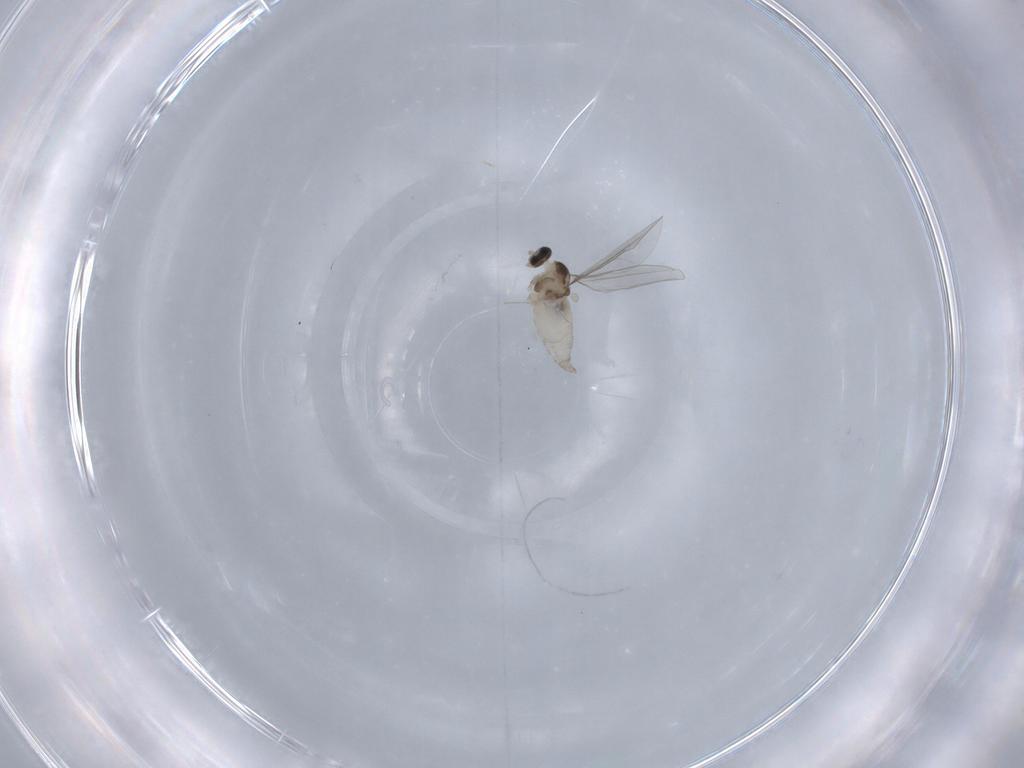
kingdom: Animalia
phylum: Arthropoda
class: Insecta
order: Diptera
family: Cecidomyiidae
